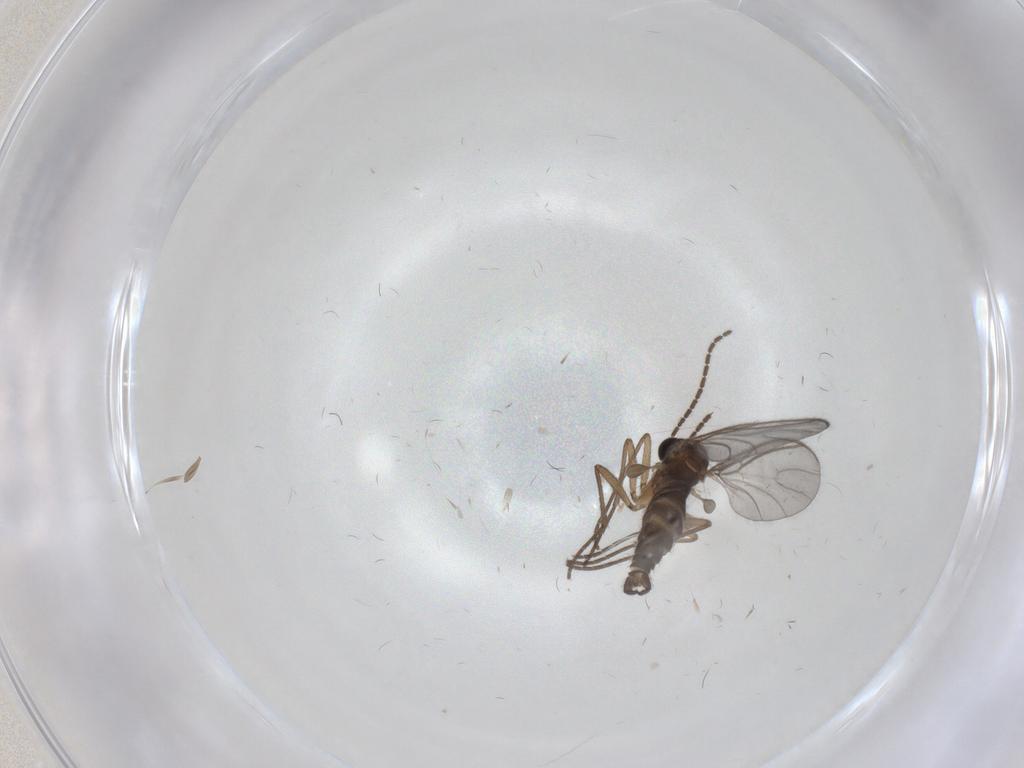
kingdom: Animalia
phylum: Arthropoda
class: Insecta
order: Diptera
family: Sciaridae
